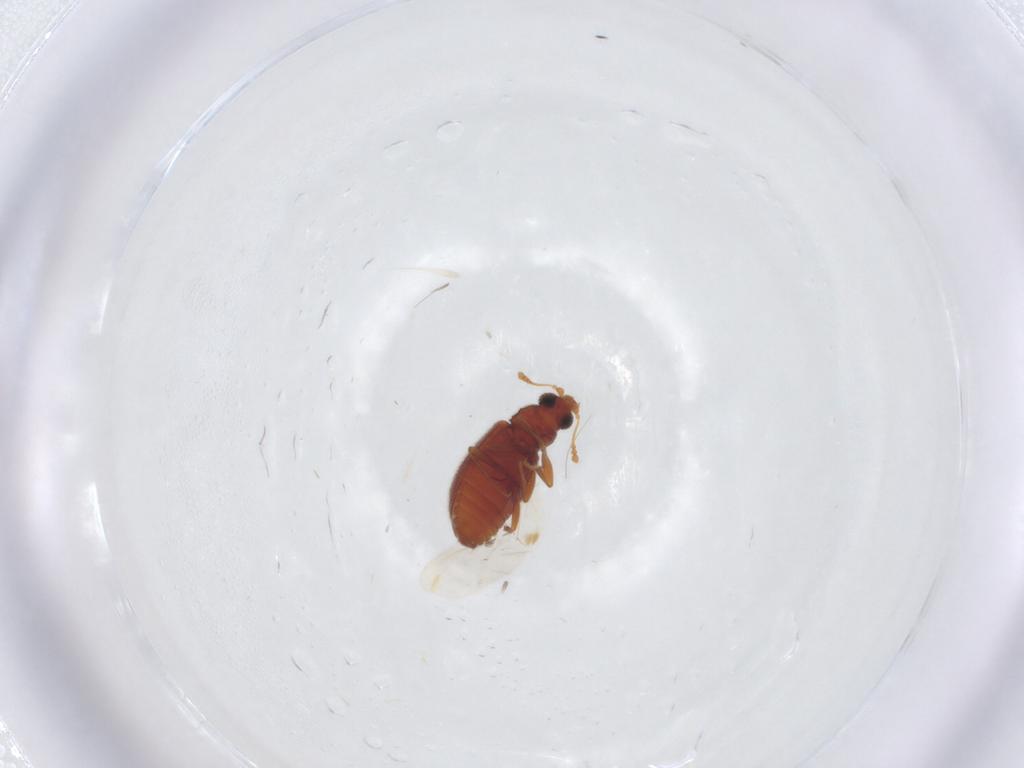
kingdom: Animalia
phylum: Arthropoda
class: Insecta
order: Coleoptera
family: Latridiidae
